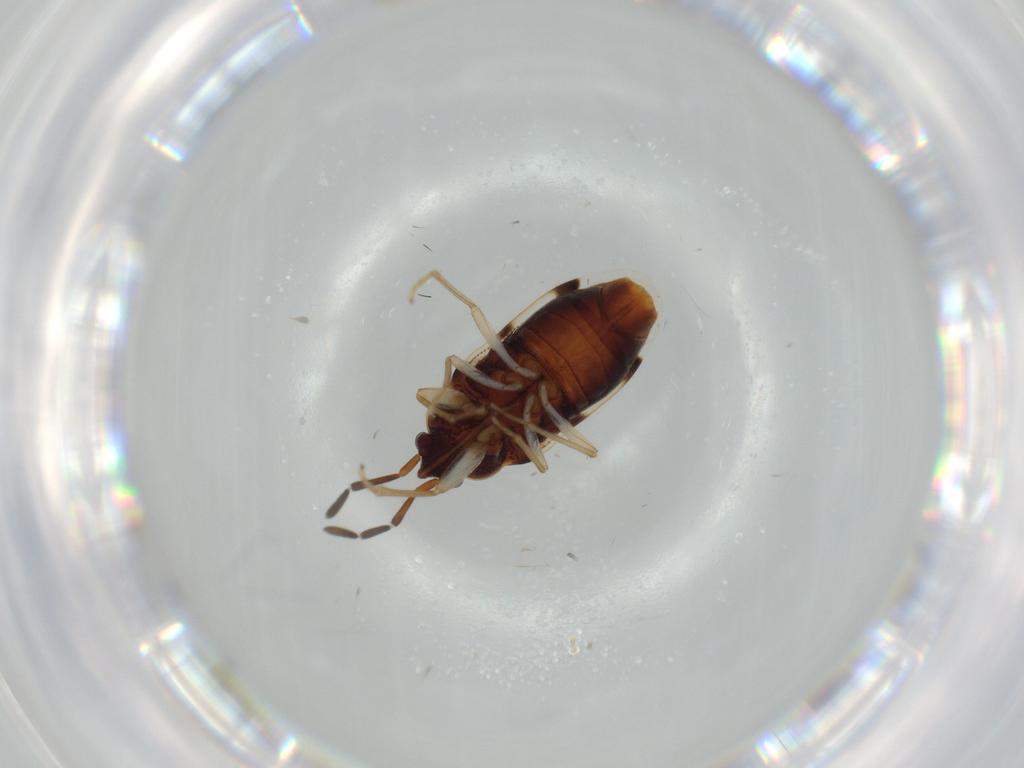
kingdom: Animalia
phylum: Arthropoda
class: Insecta
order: Hemiptera
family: Rhyparochromidae
